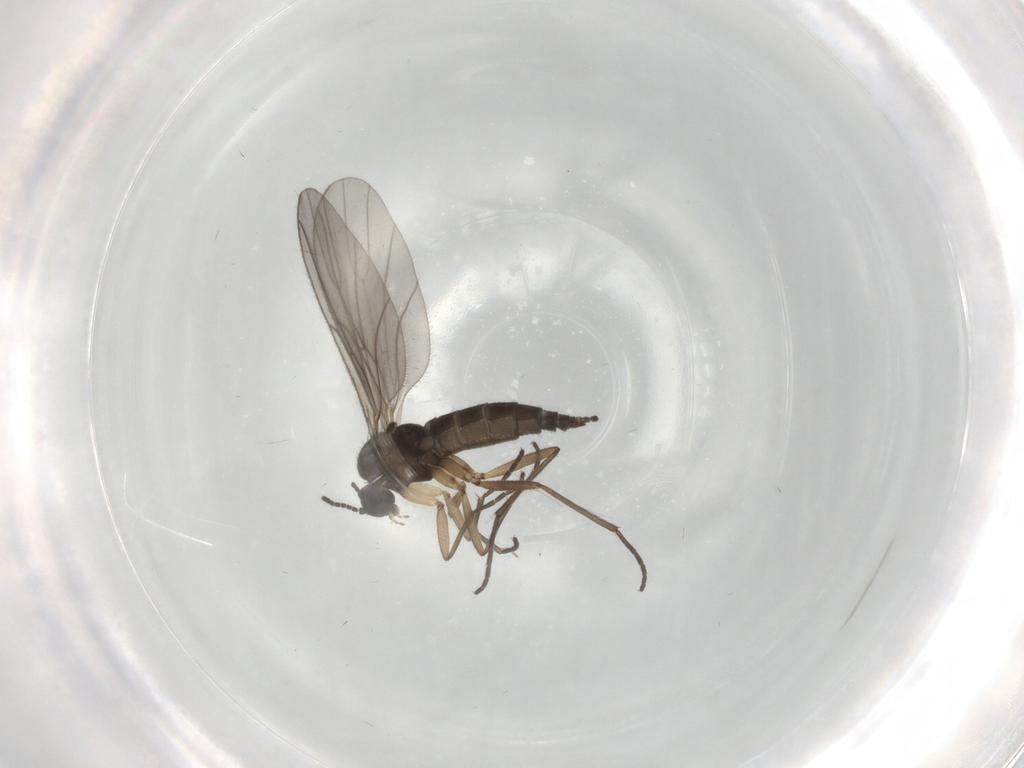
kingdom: Animalia
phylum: Arthropoda
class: Insecta
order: Diptera
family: Sciaridae
